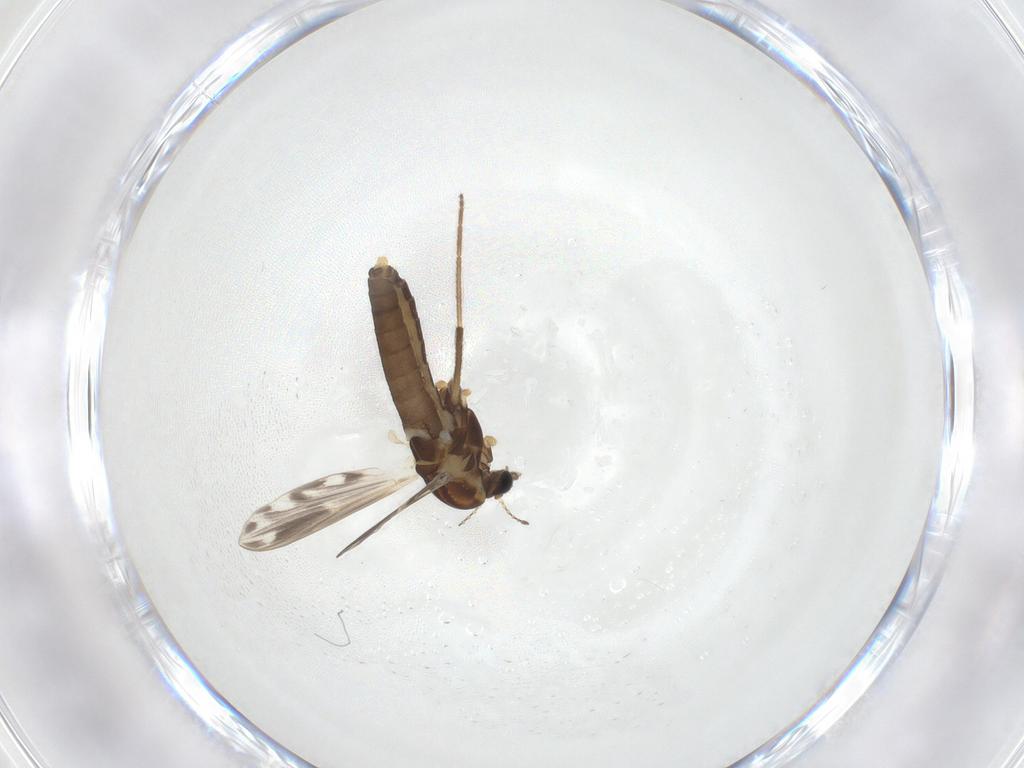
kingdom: Animalia
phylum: Arthropoda
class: Insecta
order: Diptera
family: Chironomidae
